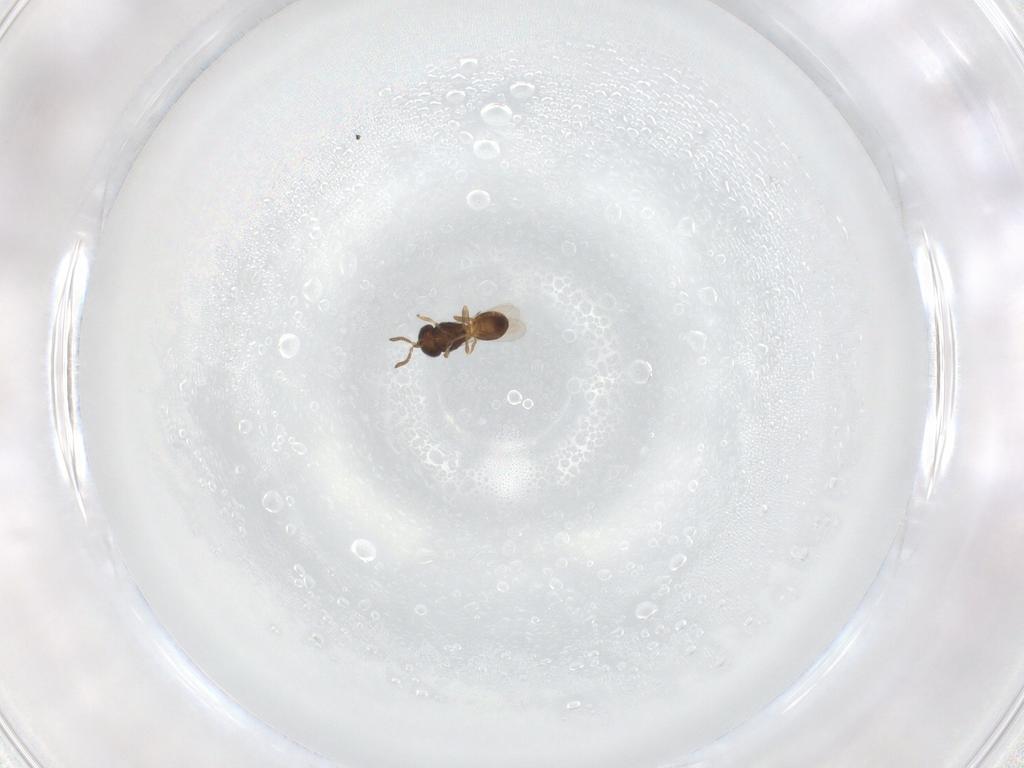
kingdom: Animalia
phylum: Arthropoda
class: Insecta
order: Hymenoptera
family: Scelionidae
